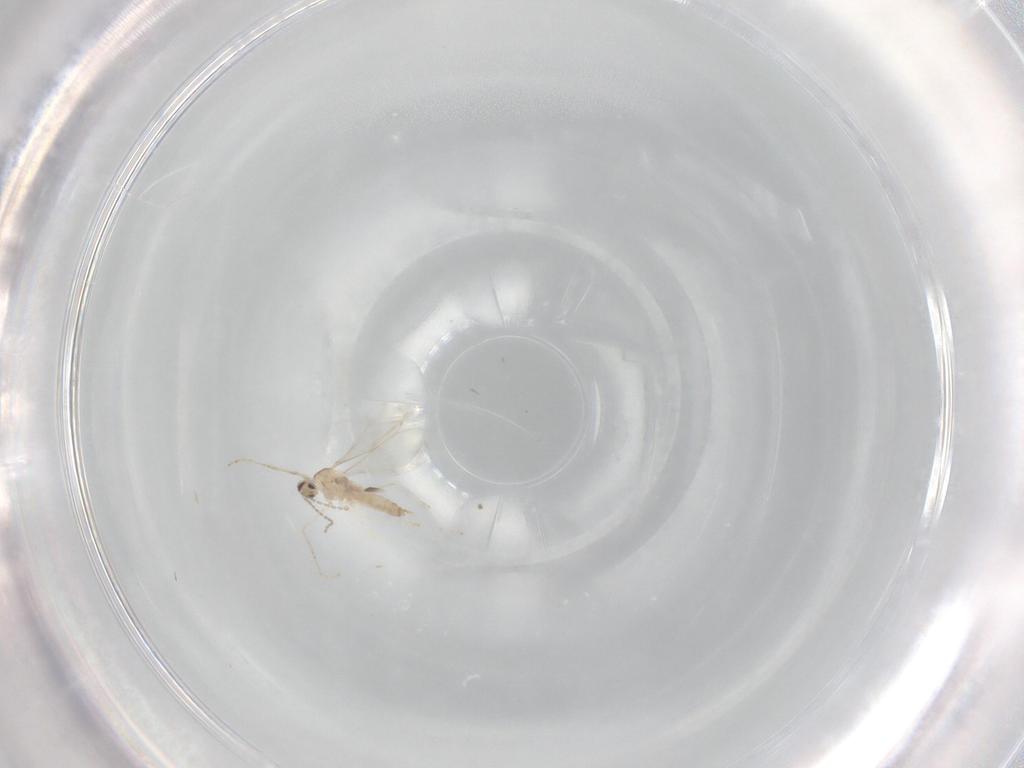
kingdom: Animalia
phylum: Arthropoda
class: Insecta
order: Diptera
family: Cecidomyiidae
